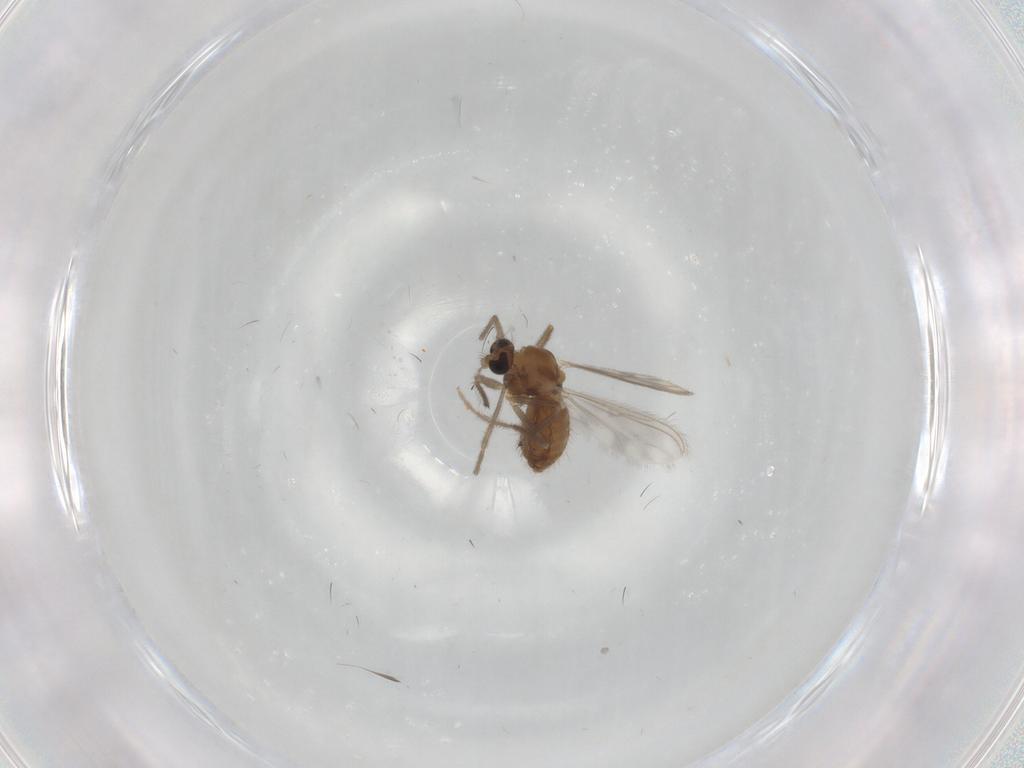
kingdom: Animalia
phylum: Arthropoda
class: Insecta
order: Diptera
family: Chironomidae
